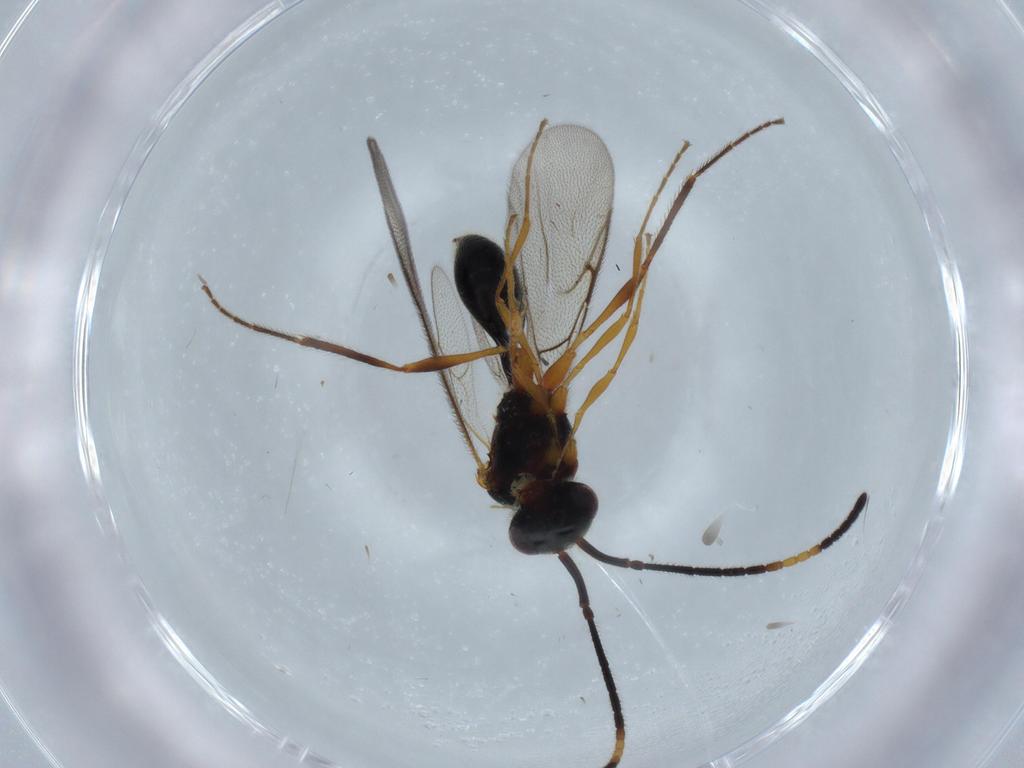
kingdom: Animalia
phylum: Arthropoda
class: Insecta
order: Hymenoptera
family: Diapriidae
